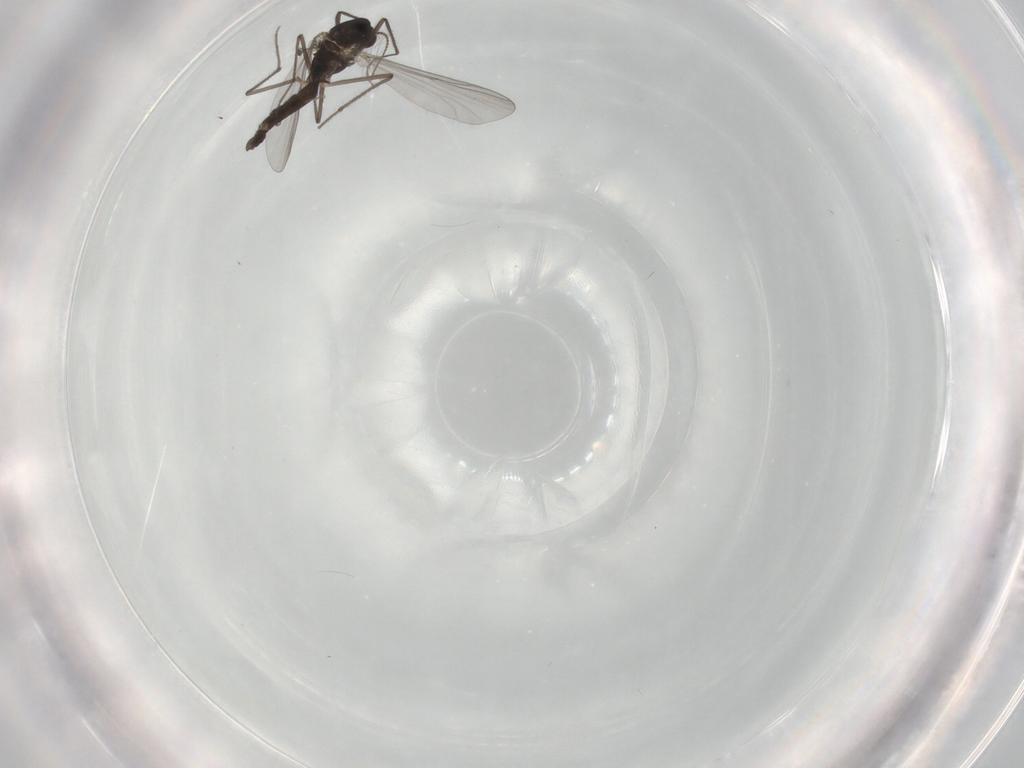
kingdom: Animalia
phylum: Arthropoda
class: Insecta
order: Diptera
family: Chironomidae
